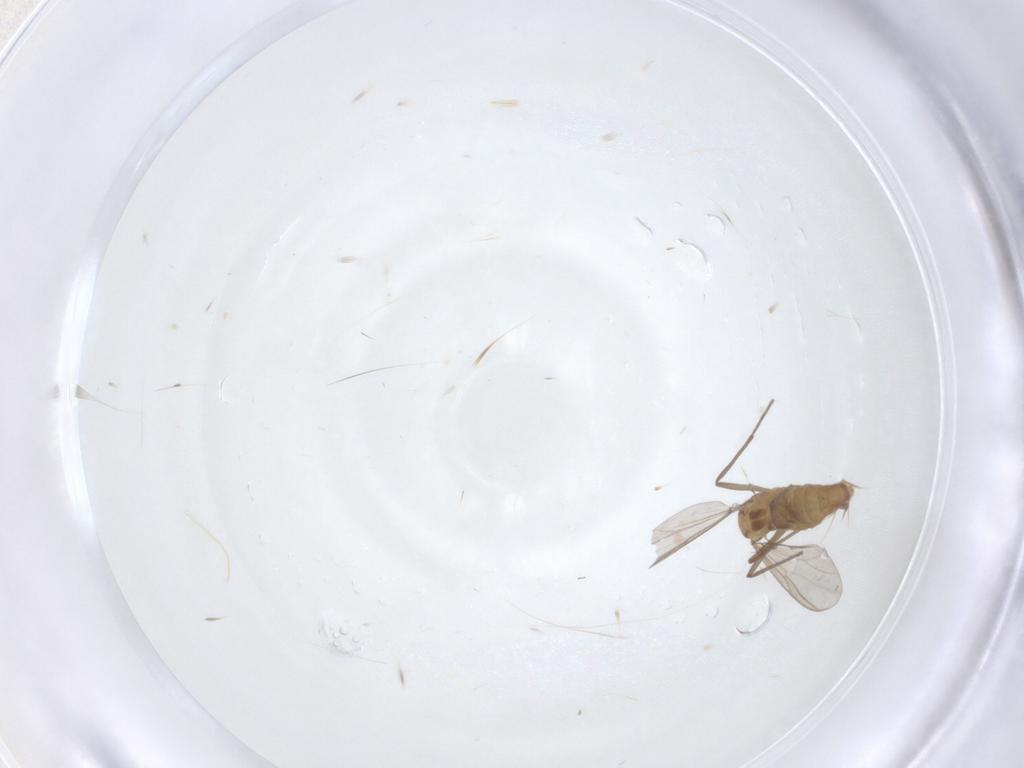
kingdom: Animalia
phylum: Arthropoda
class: Insecta
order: Diptera
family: Chironomidae
